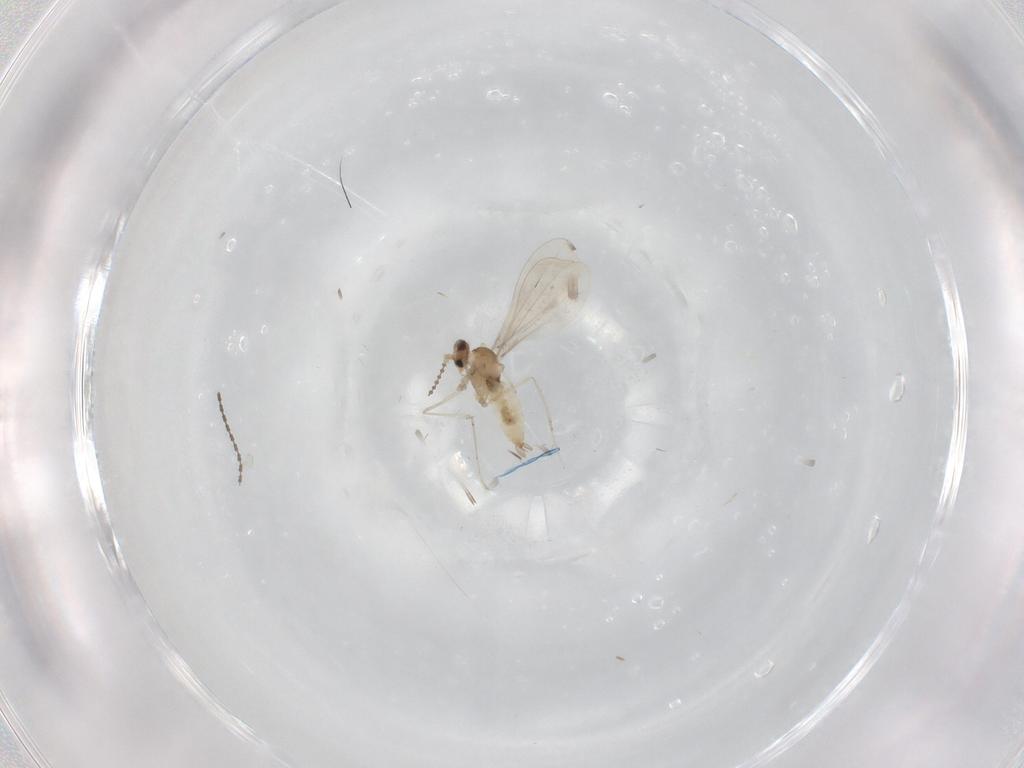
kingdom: Animalia
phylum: Arthropoda
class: Insecta
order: Diptera
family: Cecidomyiidae
